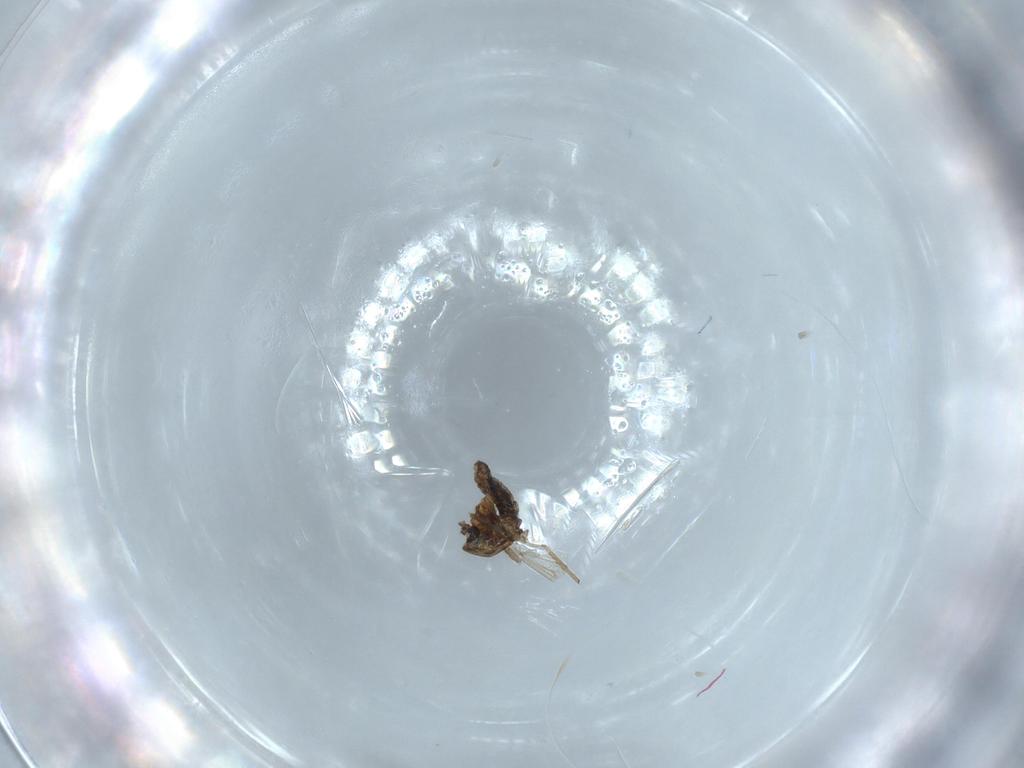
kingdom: Animalia
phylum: Arthropoda
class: Insecta
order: Diptera
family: Chironomidae
